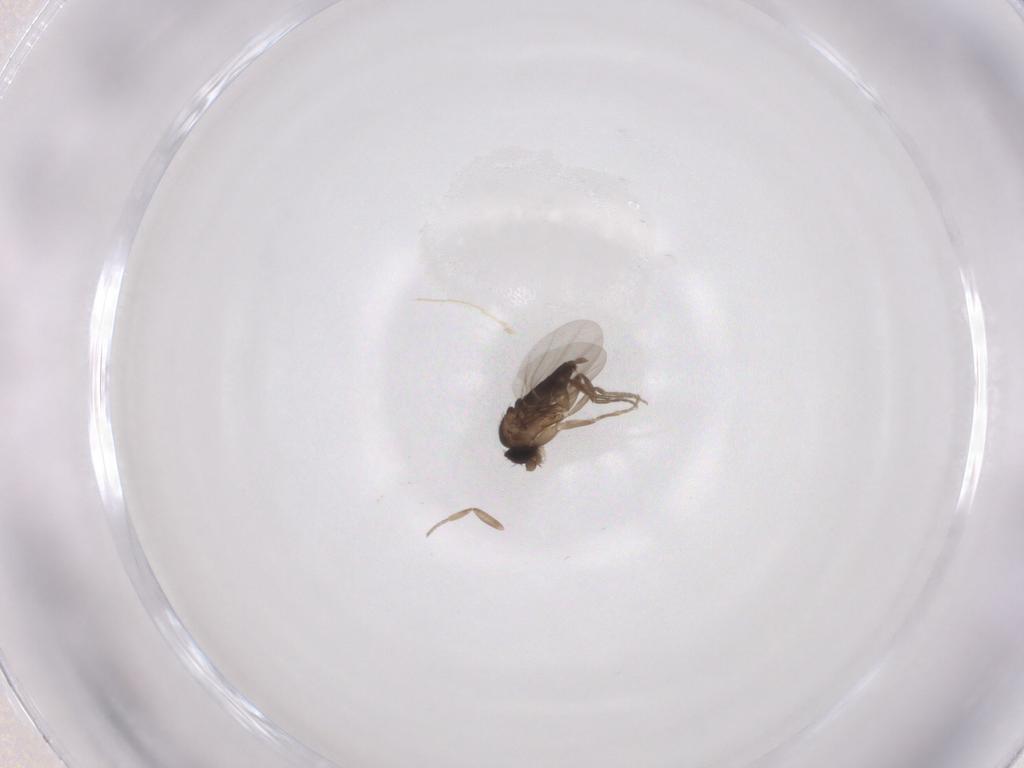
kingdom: Animalia
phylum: Arthropoda
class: Insecta
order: Diptera
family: Phoridae
